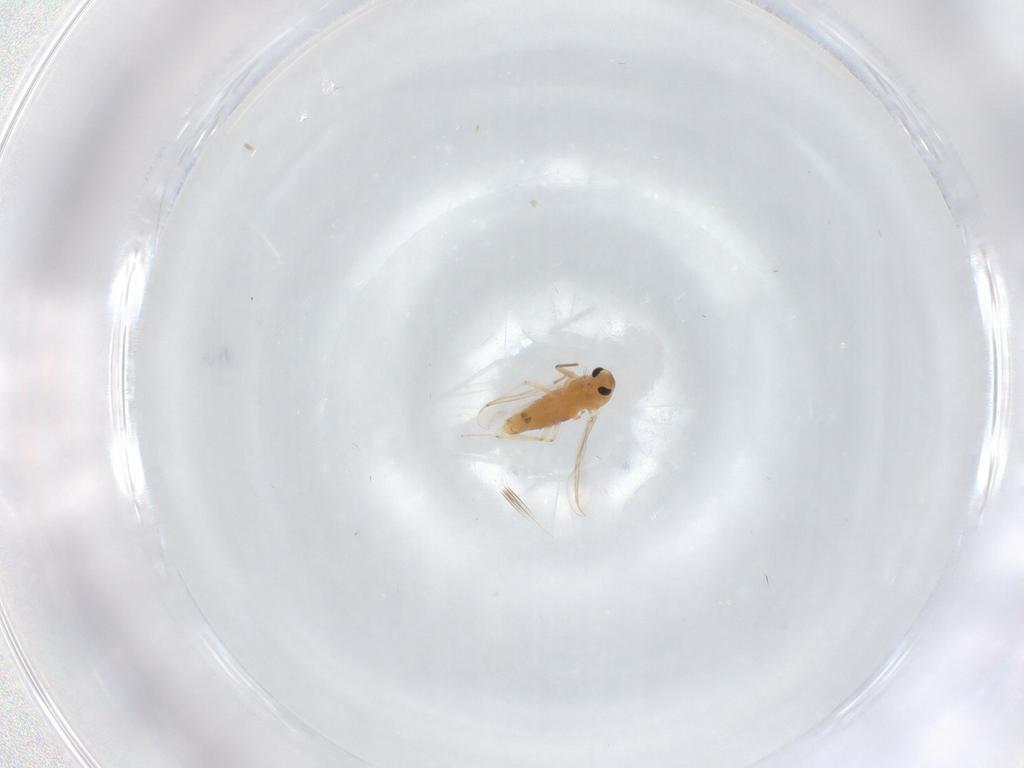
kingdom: Animalia
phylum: Arthropoda
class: Insecta
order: Diptera
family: Chironomidae
